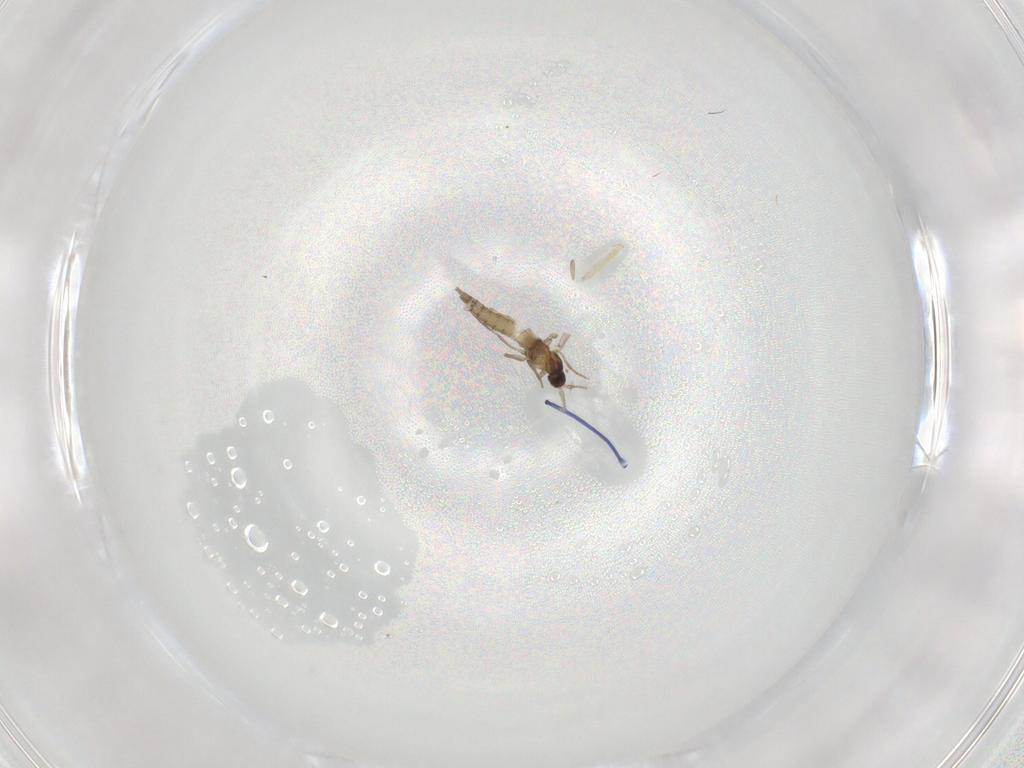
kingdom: Animalia
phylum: Arthropoda
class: Insecta
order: Diptera
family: Cecidomyiidae
